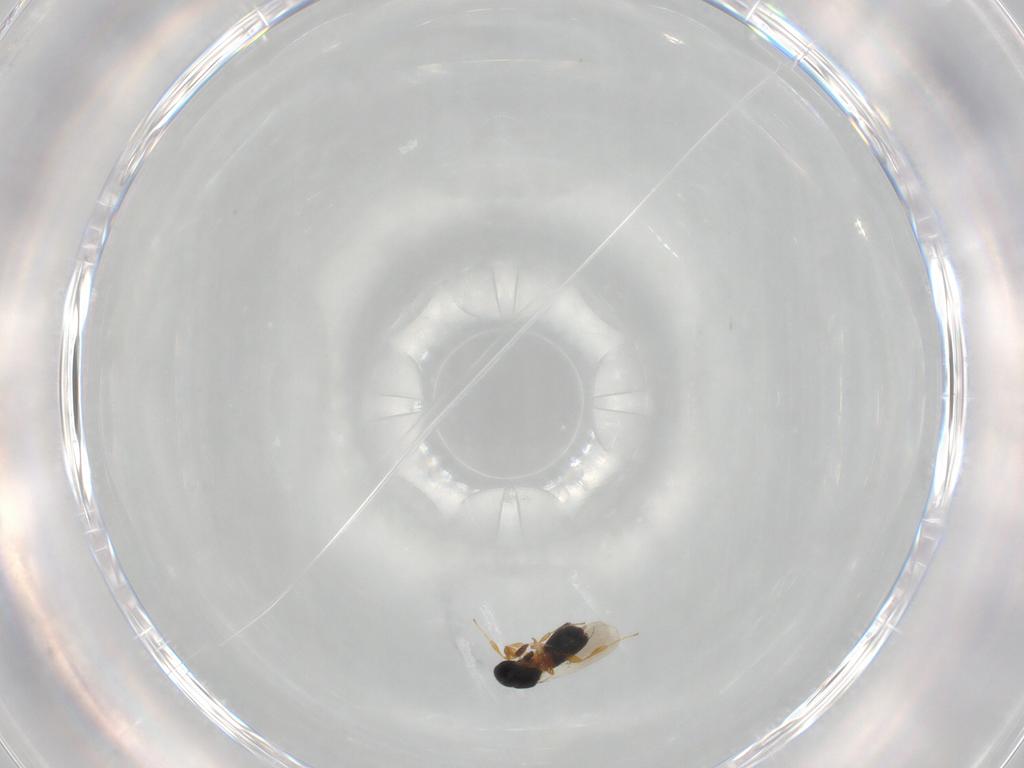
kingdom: Animalia
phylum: Arthropoda
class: Insecta
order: Hymenoptera
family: Platygastridae
